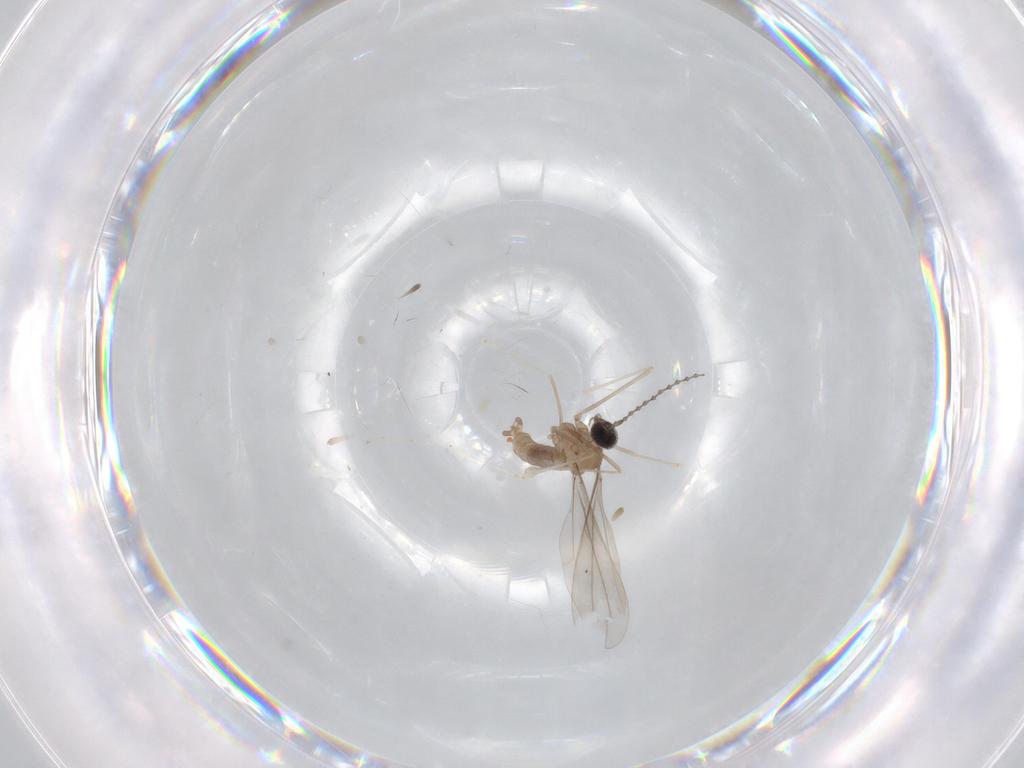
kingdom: Animalia
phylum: Arthropoda
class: Insecta
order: Diptera
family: Cecidomyiidae
